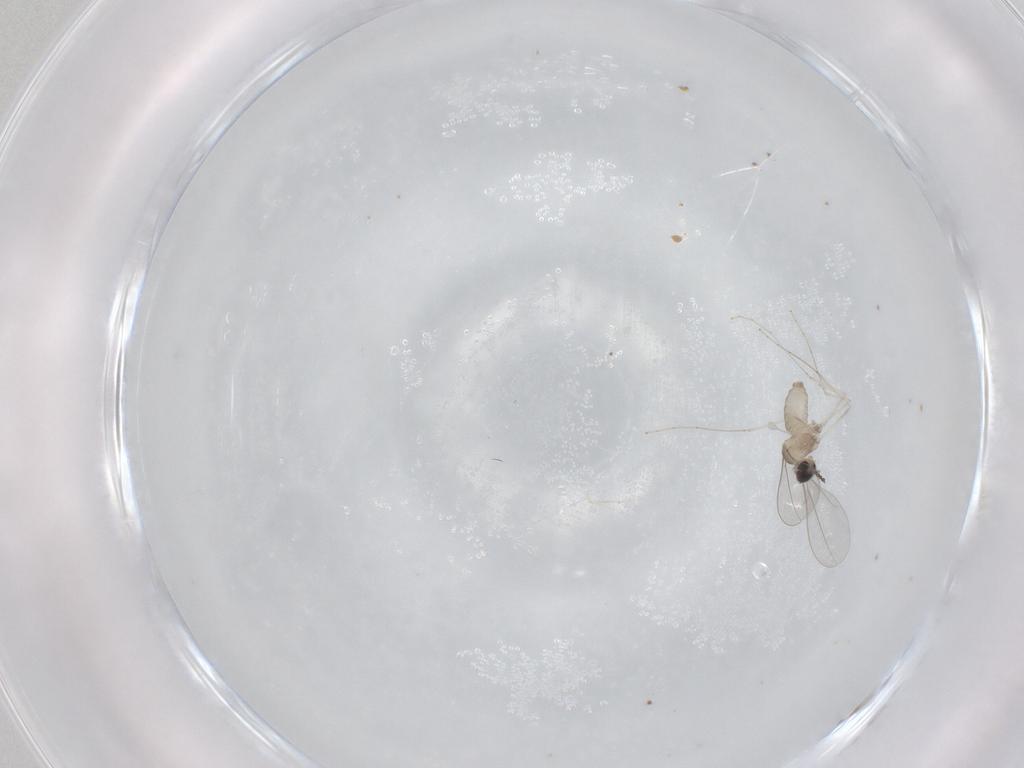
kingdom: Animalia
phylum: Arthropoda
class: Insecta
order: Diptera
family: Cecidomyiidae
